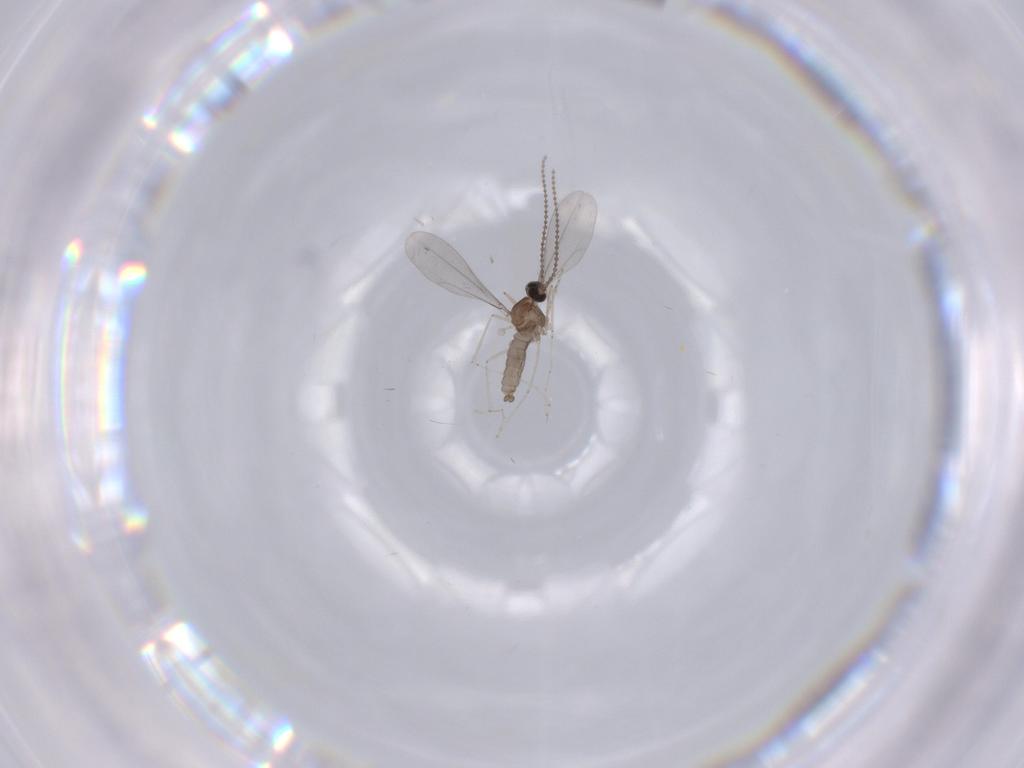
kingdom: Animalia
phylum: Arthropoda
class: Insecta
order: Diptera
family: Cecidomyiidae
